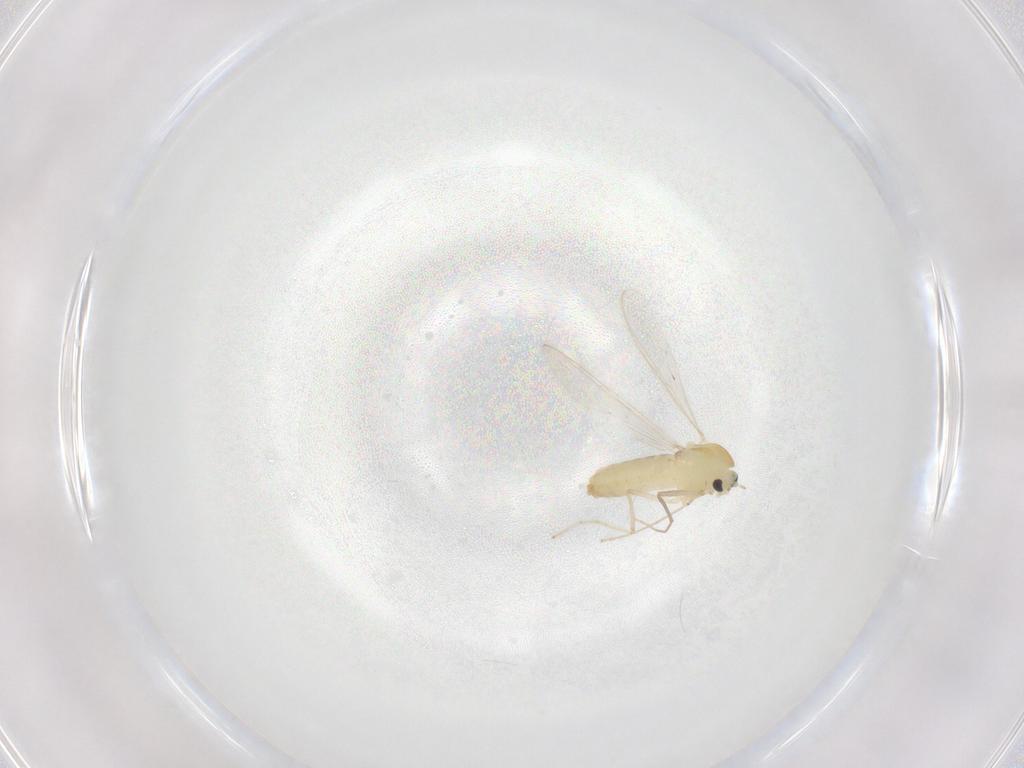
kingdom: Animalia
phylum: Arthropoda
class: Insecta
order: Diptera
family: Chironomidae
